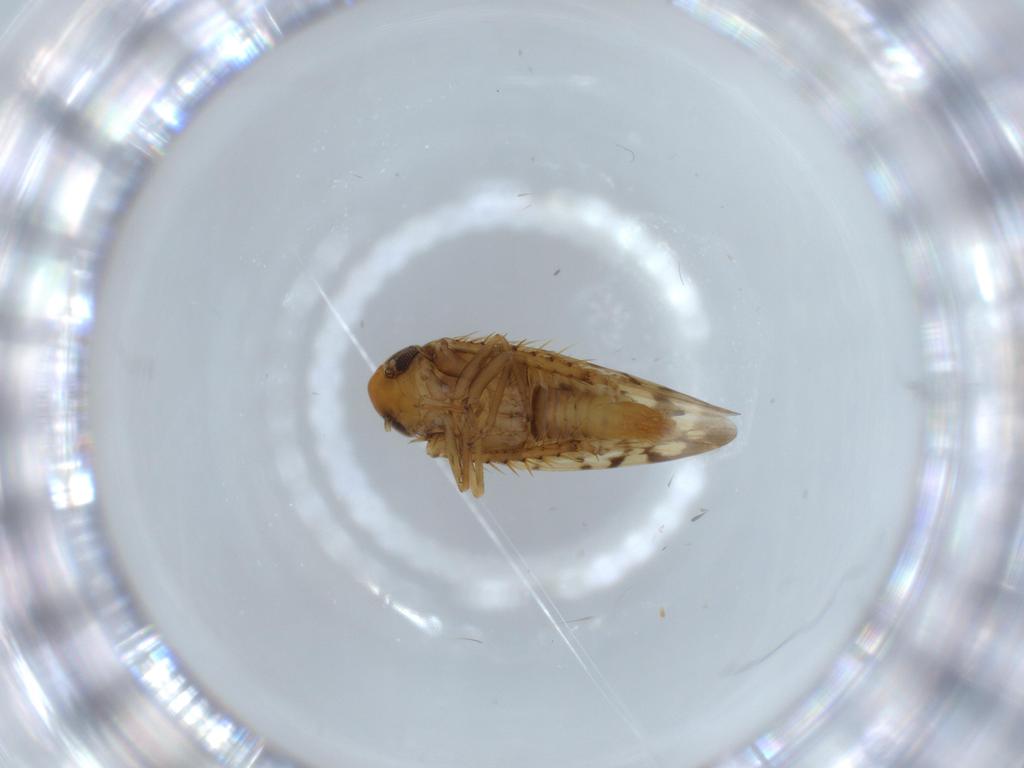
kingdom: Animalia
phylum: Arthropoda
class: Insecta
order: Hemiptera
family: Cicadellidae
